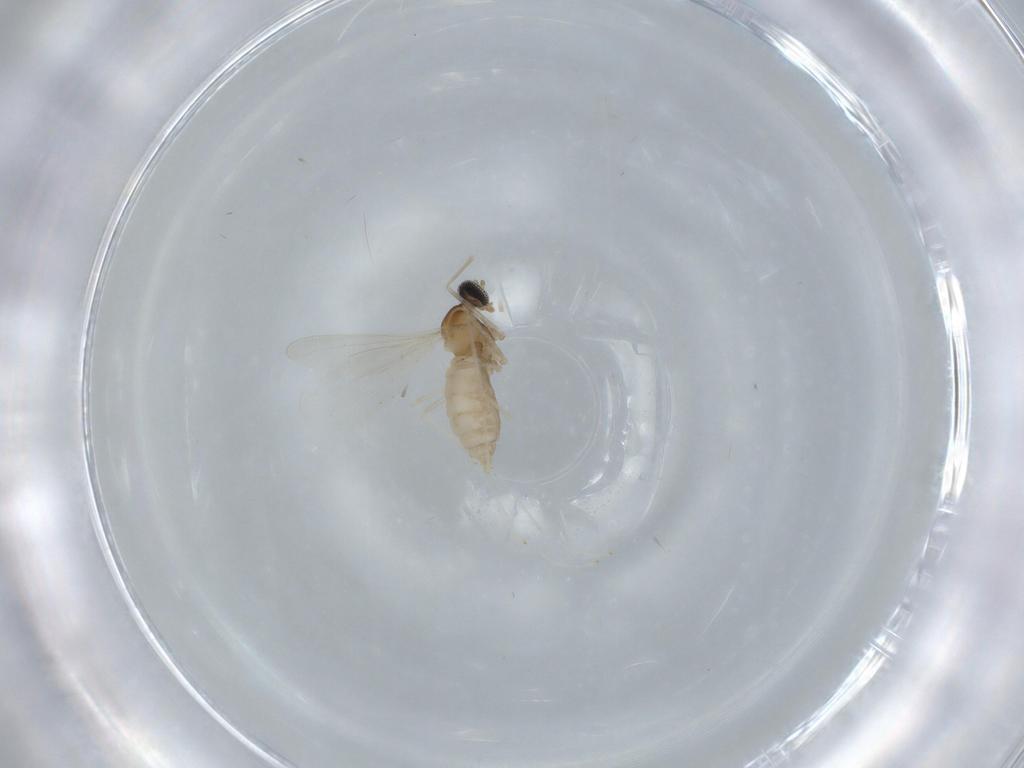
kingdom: Animalia
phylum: Arthropoda
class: Insecta
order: Diptera
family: Cecidomyiidae
